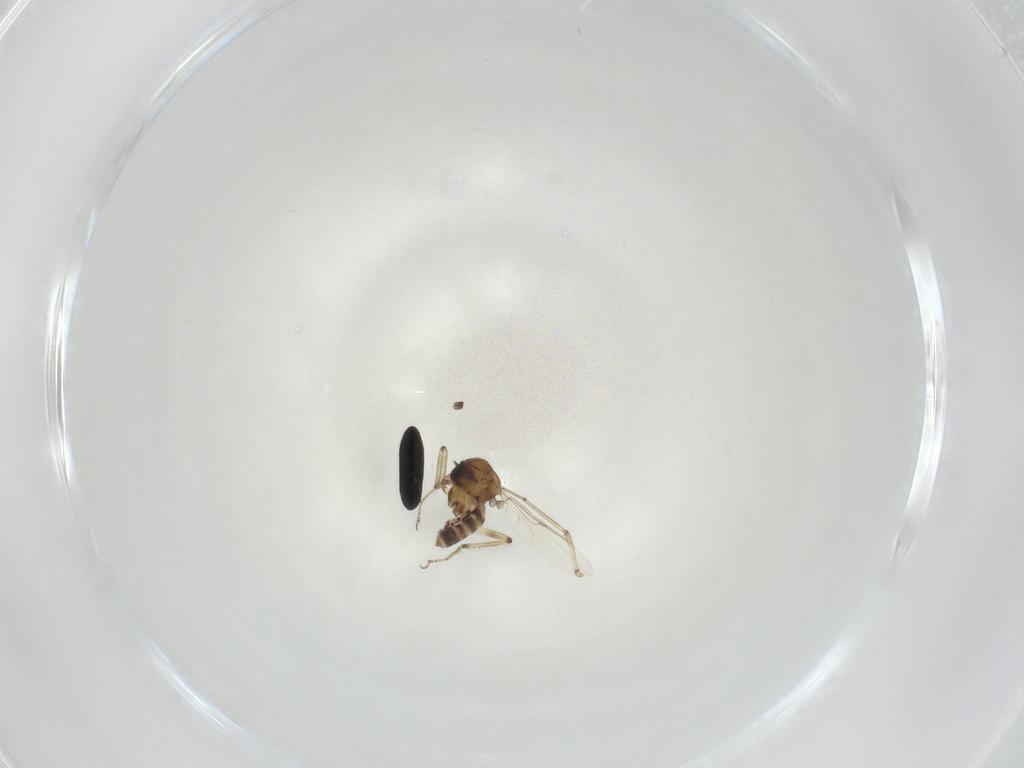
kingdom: Animalia
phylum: Arthropoda
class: Insecta
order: Diptera
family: Ceratopogonidae
